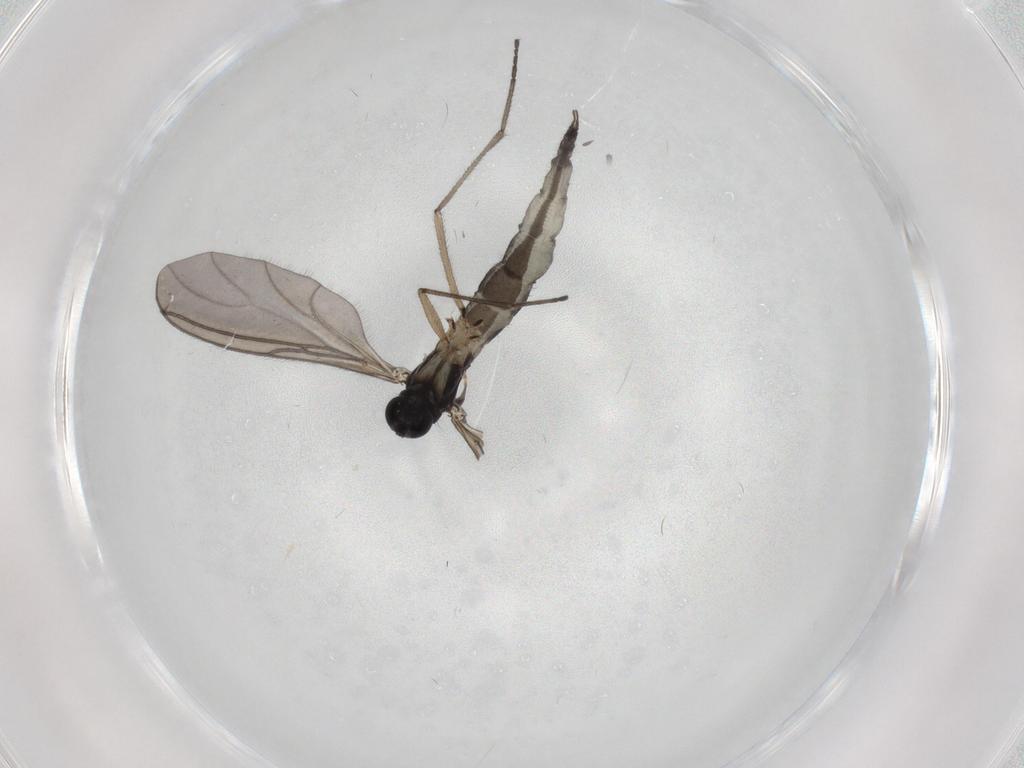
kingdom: Animalia
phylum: Arthropoda
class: Insecta
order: Diptera
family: Sciaridae
